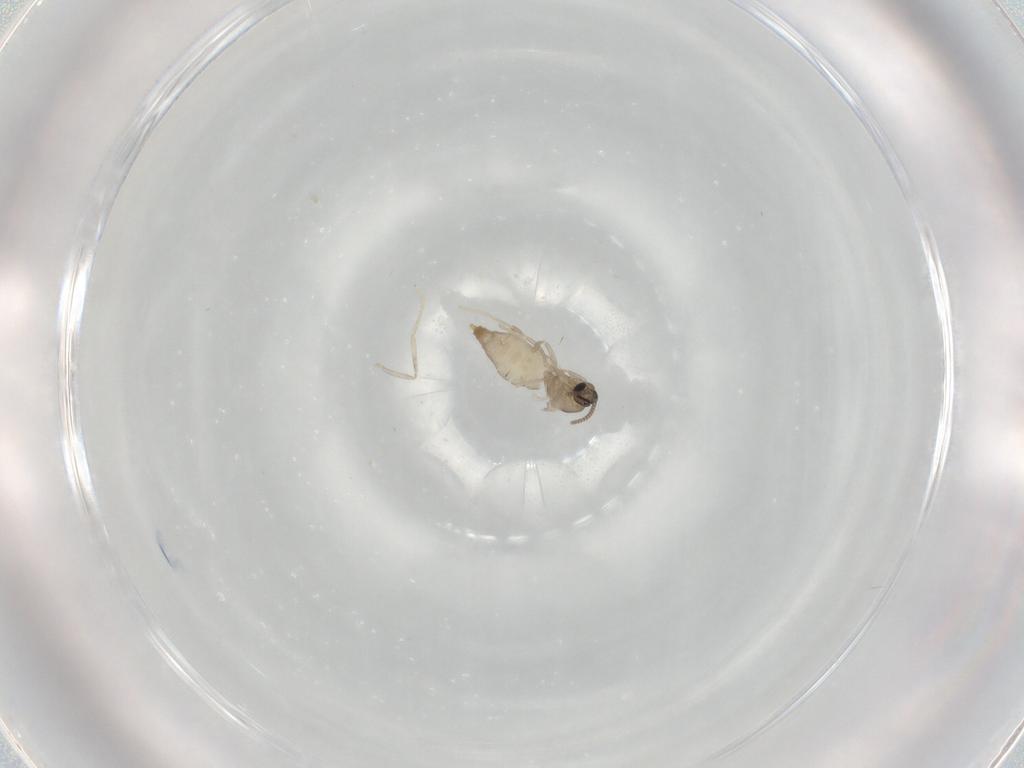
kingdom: Animalia
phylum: Arthropoda
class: Insecta
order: Diptera
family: Cecidomyiidae
